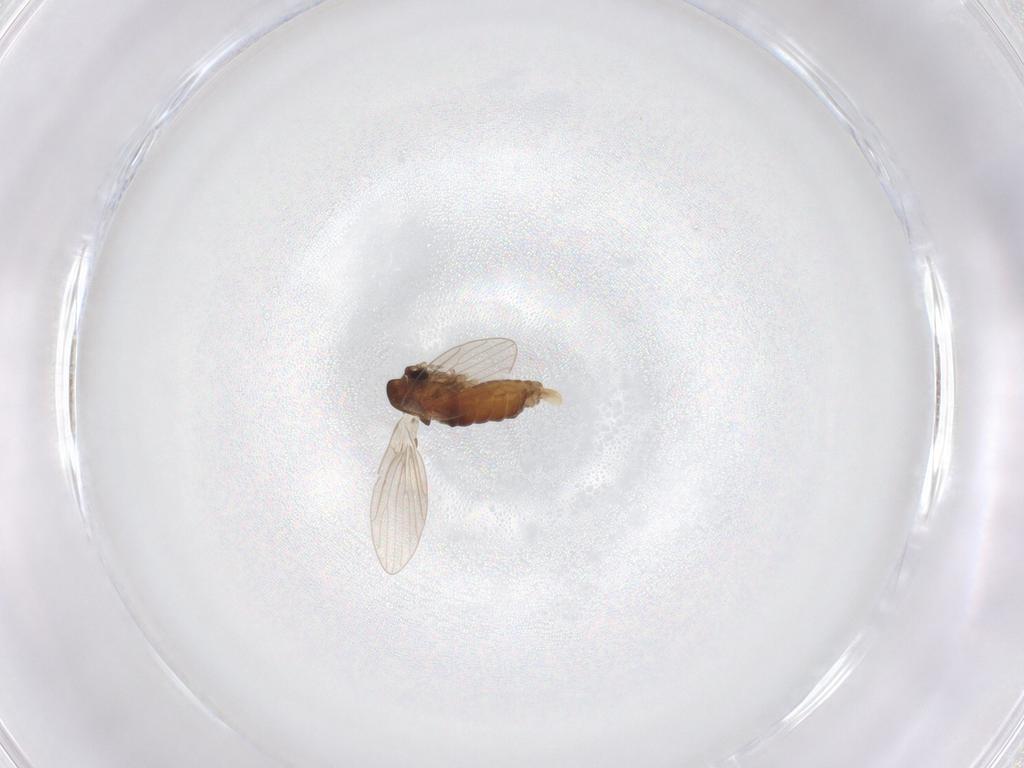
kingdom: Animalia
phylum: Arthropoda
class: Insecta
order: Diptera
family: Psychodidae
